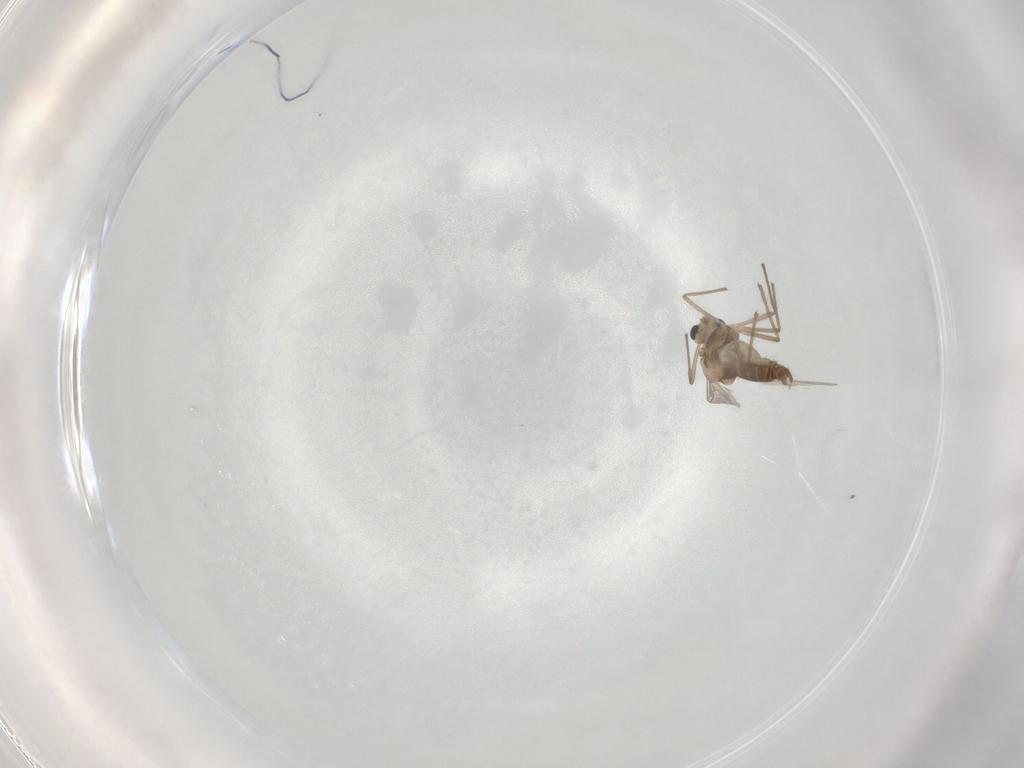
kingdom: Animalia
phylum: Arthropoda
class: Insecta
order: Diptera
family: Chironomidae
